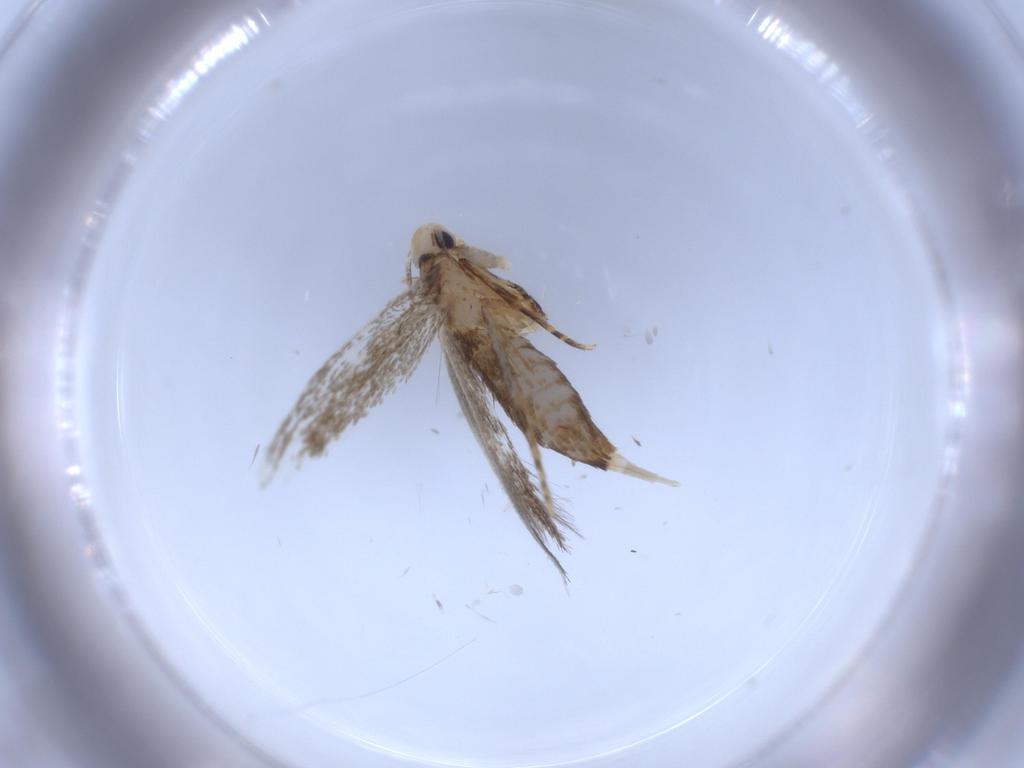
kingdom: Animalia
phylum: Arthropoda
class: Insecta
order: Lepidoptera
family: Tineidae
